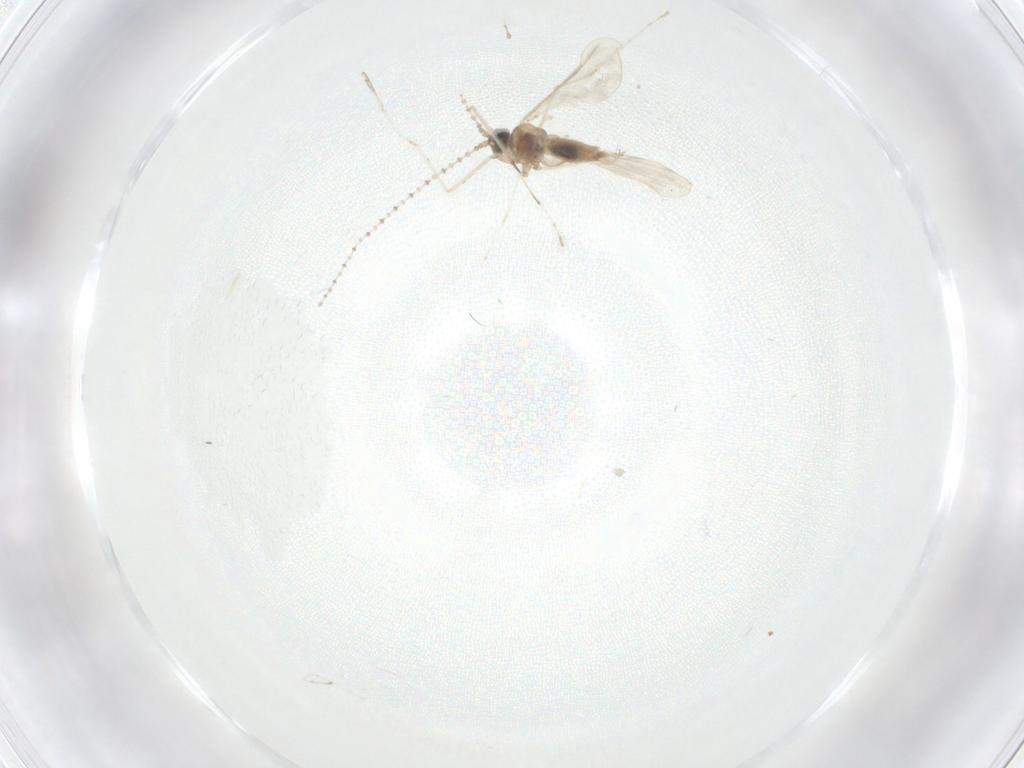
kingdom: Animalia
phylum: Arthropoda
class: Insecta
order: Diptera
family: Cecidomyiidae
